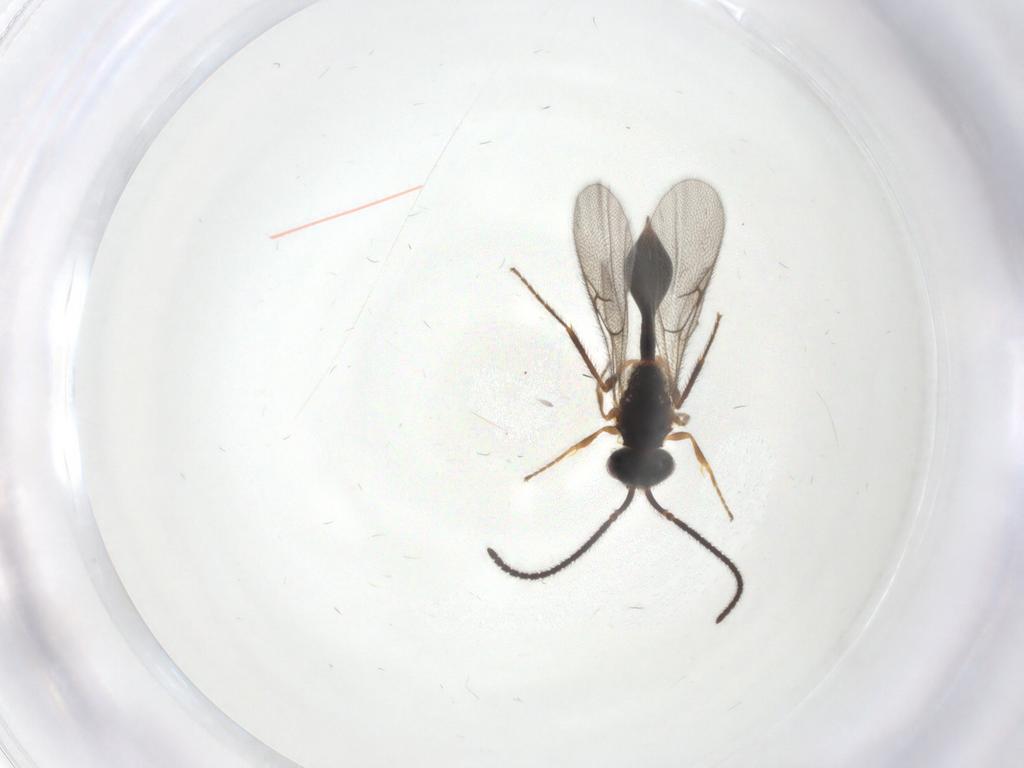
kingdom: Animalia
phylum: Arthropoda
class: Insecta
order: Hymenoptera
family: Diapriidae
